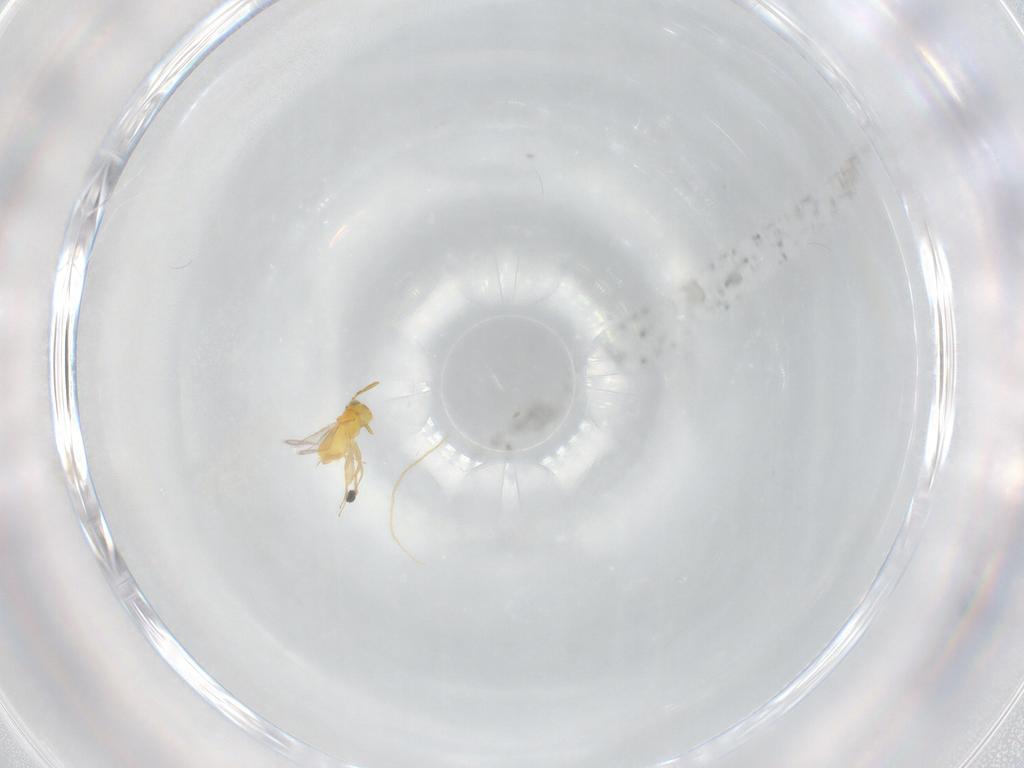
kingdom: Animalia
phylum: Arthropoda
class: Insecta
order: Hymenoptera
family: Aphelinidae
